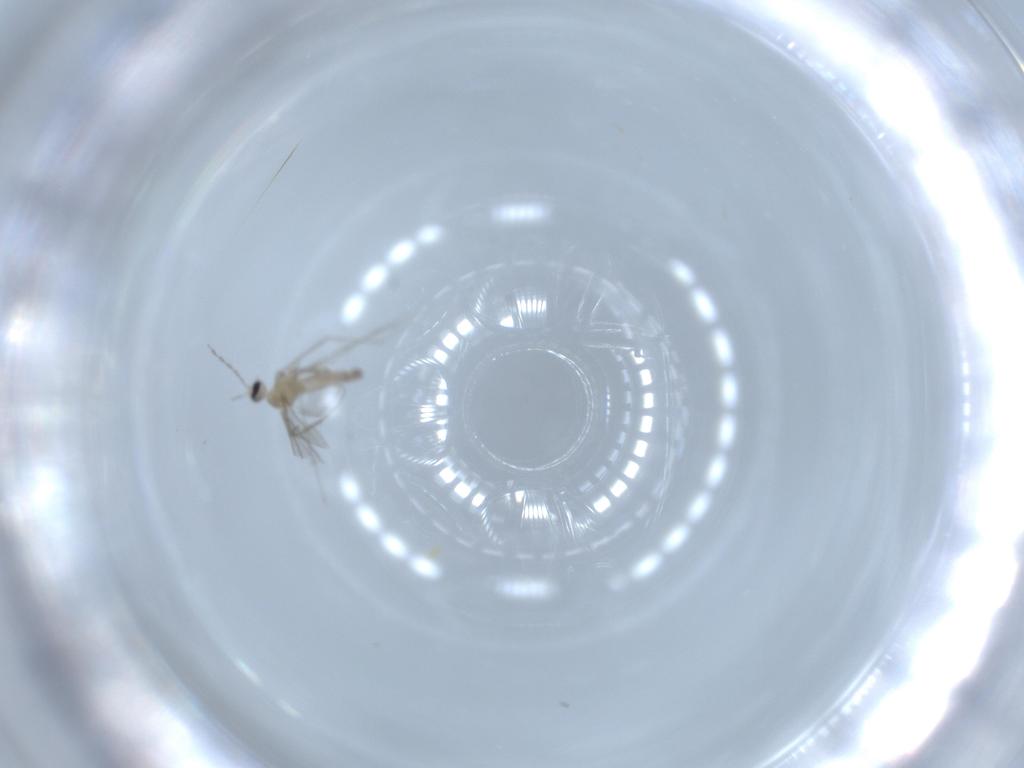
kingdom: Animalia
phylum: Arthropoda
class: Insecta
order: Diptera
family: Cecidomyiidae
